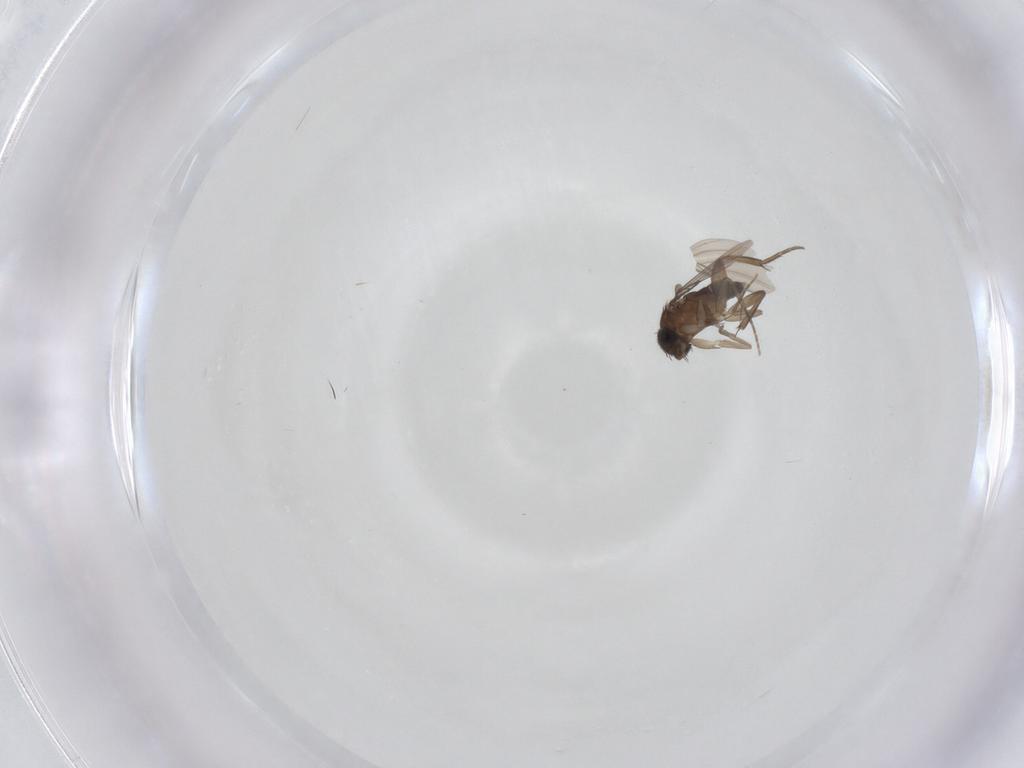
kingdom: Animalia
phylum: Arthropoda
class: Insecta
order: Diptera
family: Phoridae
